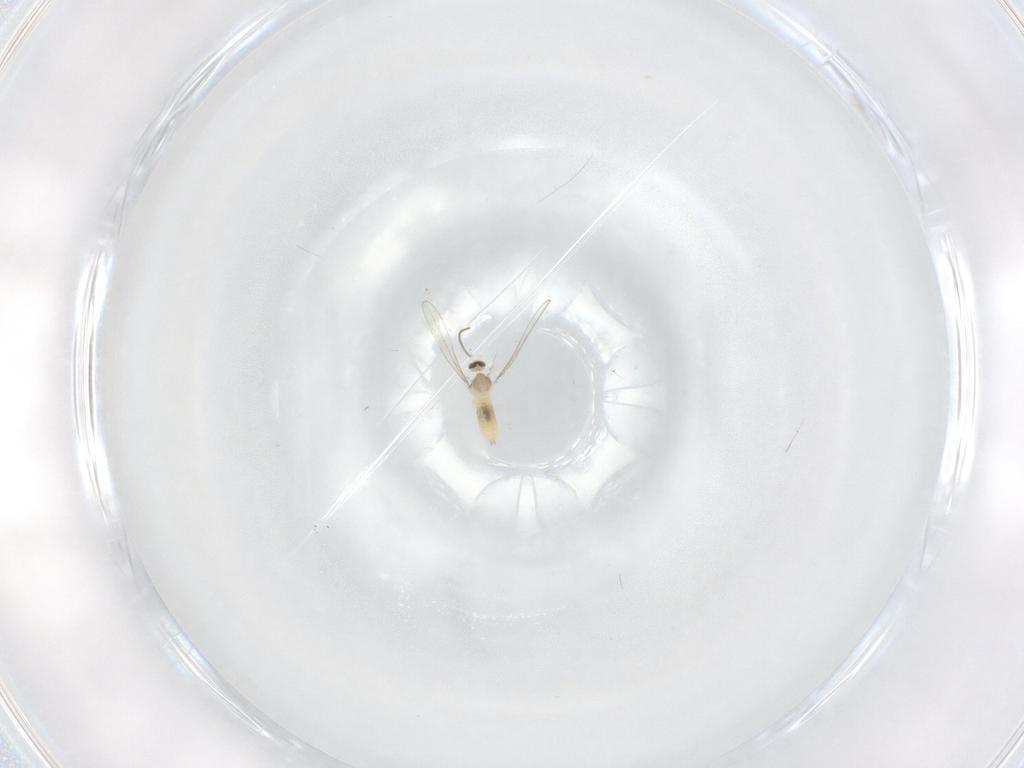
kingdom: Animalia
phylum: Arthropoda
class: Insecta
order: Diptera
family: Cecidomyiidae
